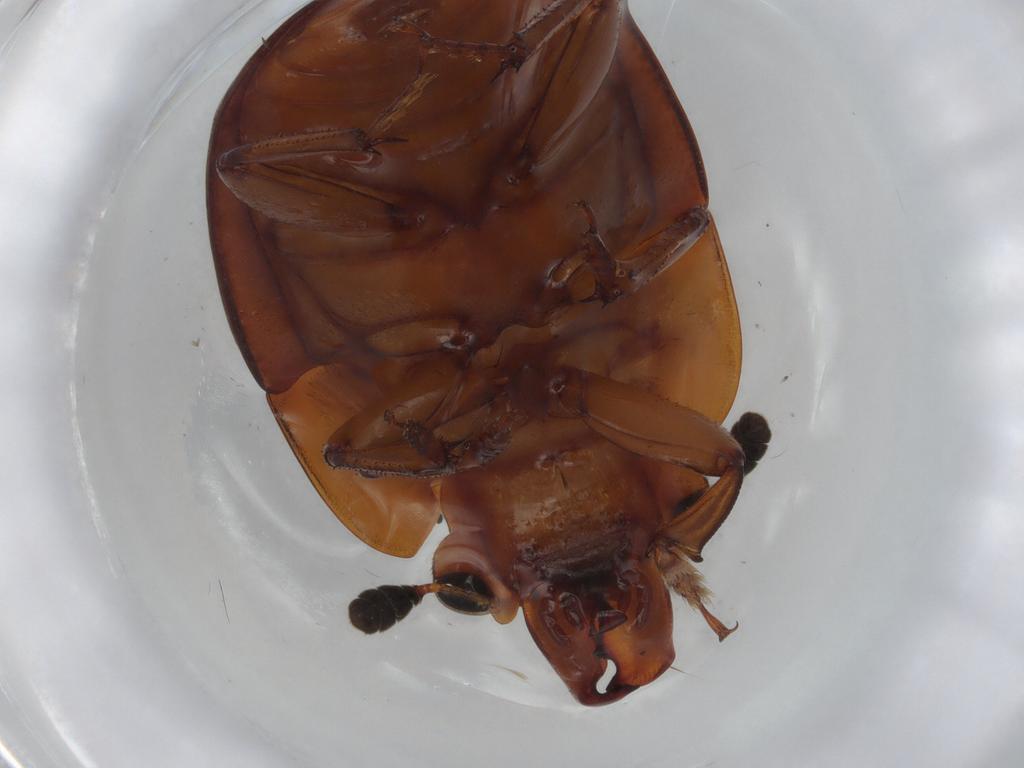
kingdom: Animalia
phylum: Arthropoda
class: Insecta
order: Coleoptera
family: Nitidulidae
